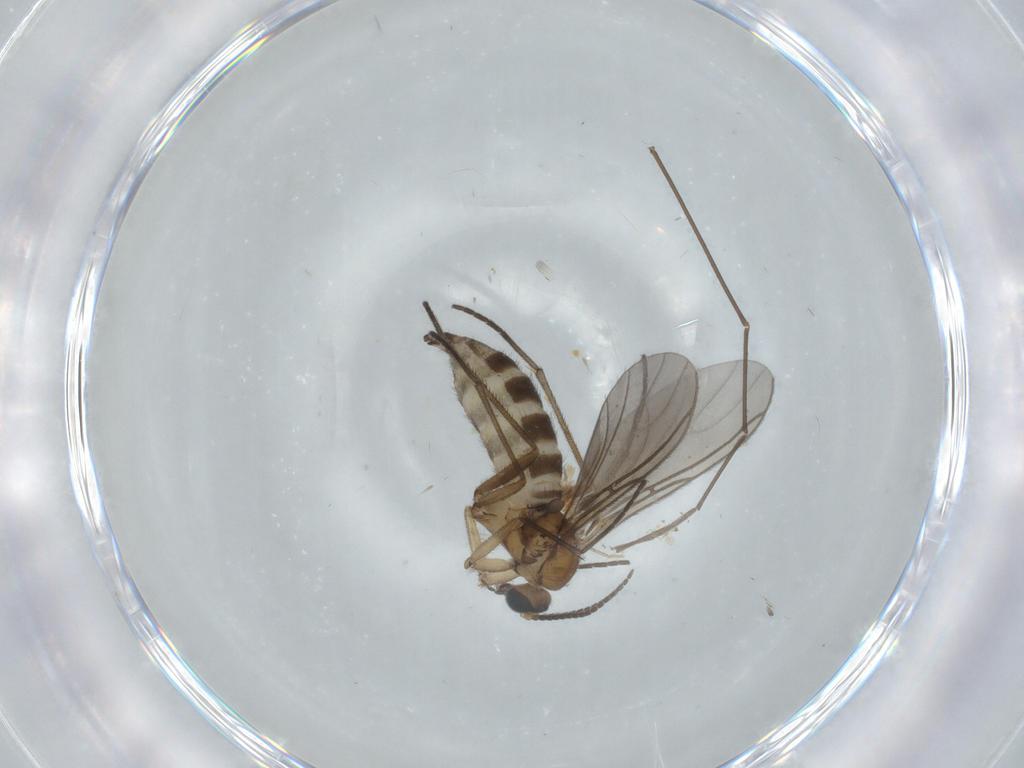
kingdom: Animalia
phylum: Arthropoda
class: Insecta
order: Diptera
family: Sciaridae
